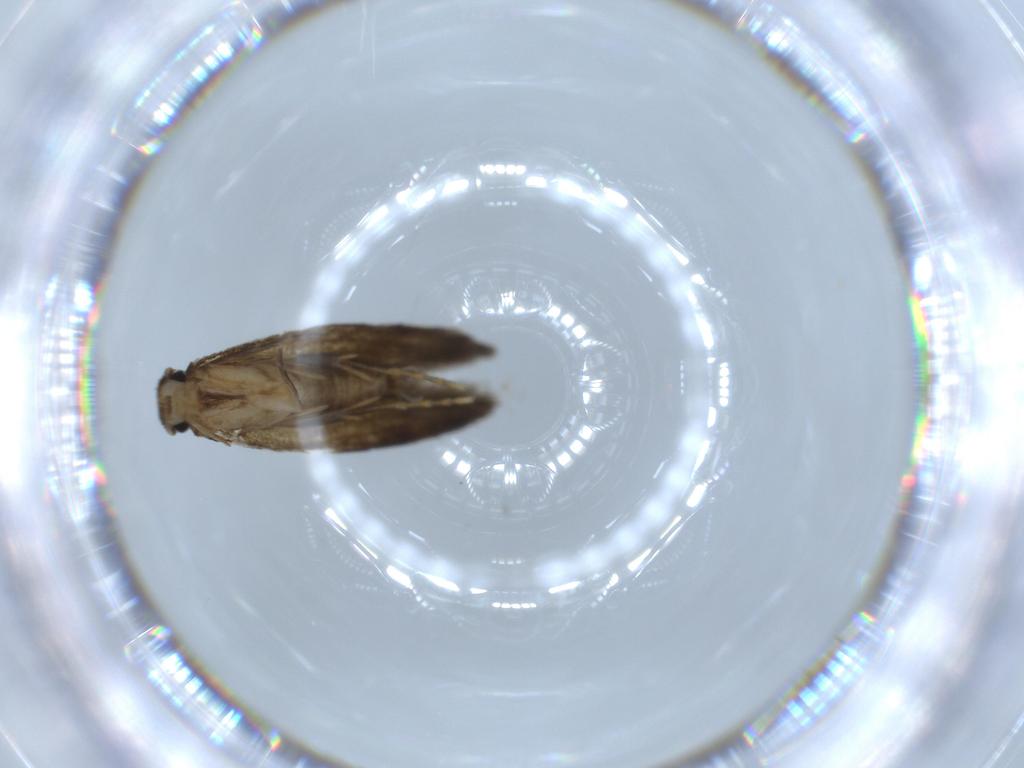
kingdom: Animalia
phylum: Arthropoda
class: Insecta
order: Lepidoptera
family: Tineidae
